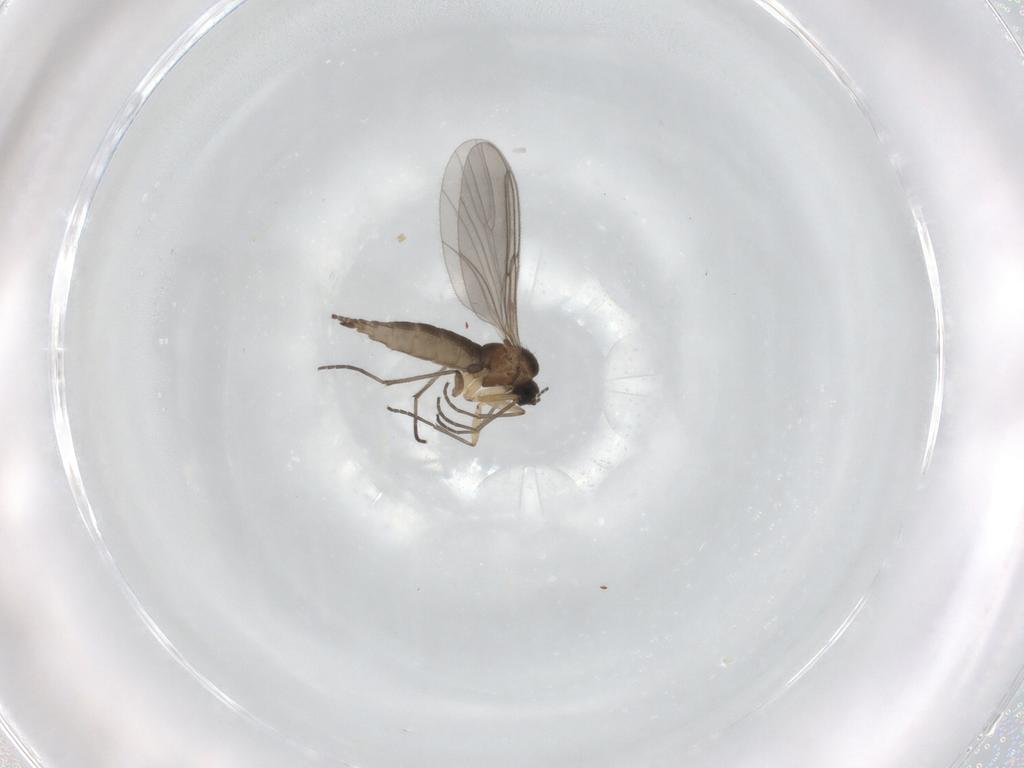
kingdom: Animalia
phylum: Arthropoda
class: Insecta
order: Diptera
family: Sciaridae
